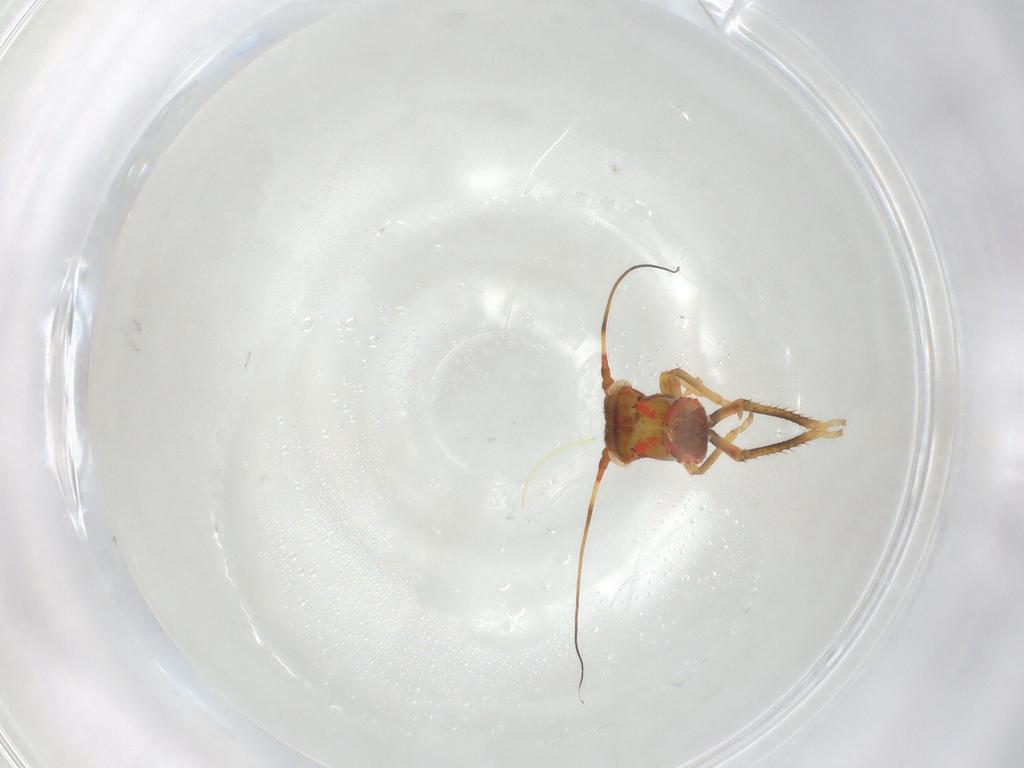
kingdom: Animalia
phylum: Arthropoda
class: Insecta
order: Hemiptera
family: Cicadellidae
